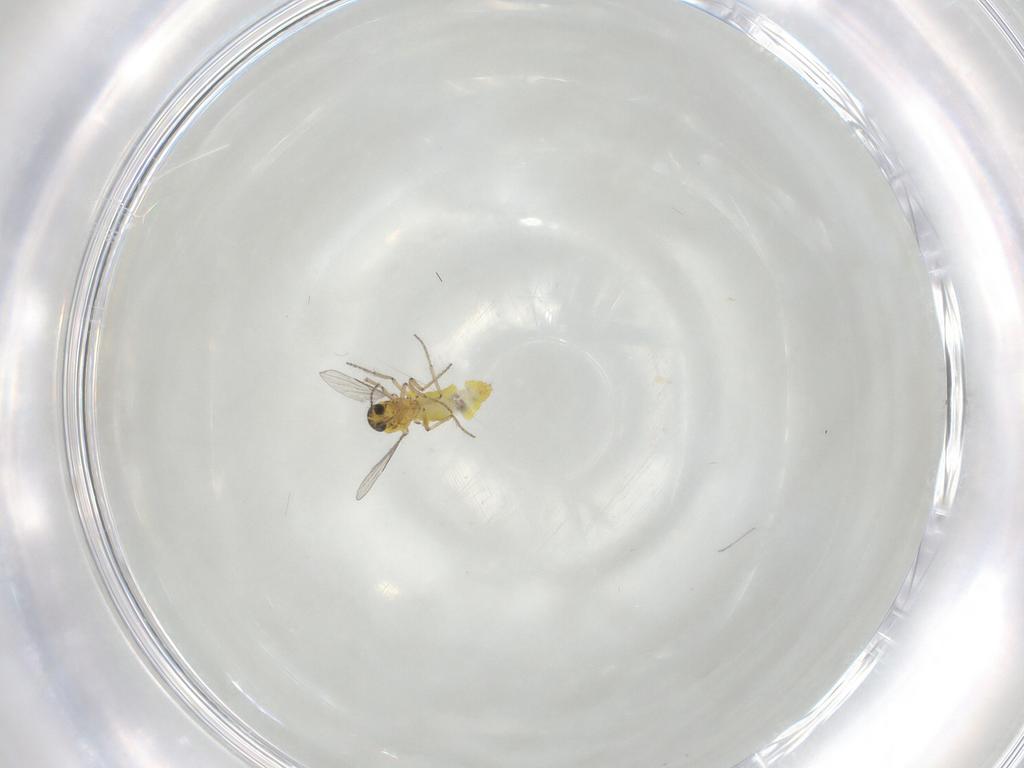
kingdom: Animalia
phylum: Arthropoda
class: Insecta
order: Diptera
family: Ceratopogonidae
